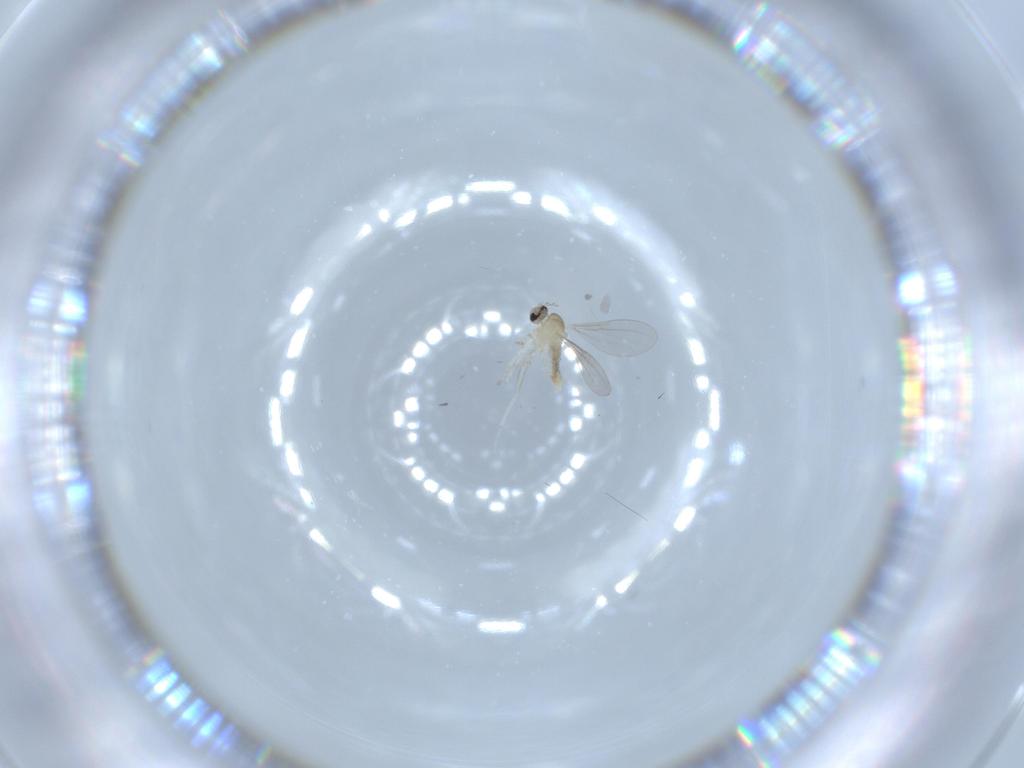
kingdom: Animalia
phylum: Arthropoda
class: Insecta
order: Diptera
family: Cecidomyiidae
